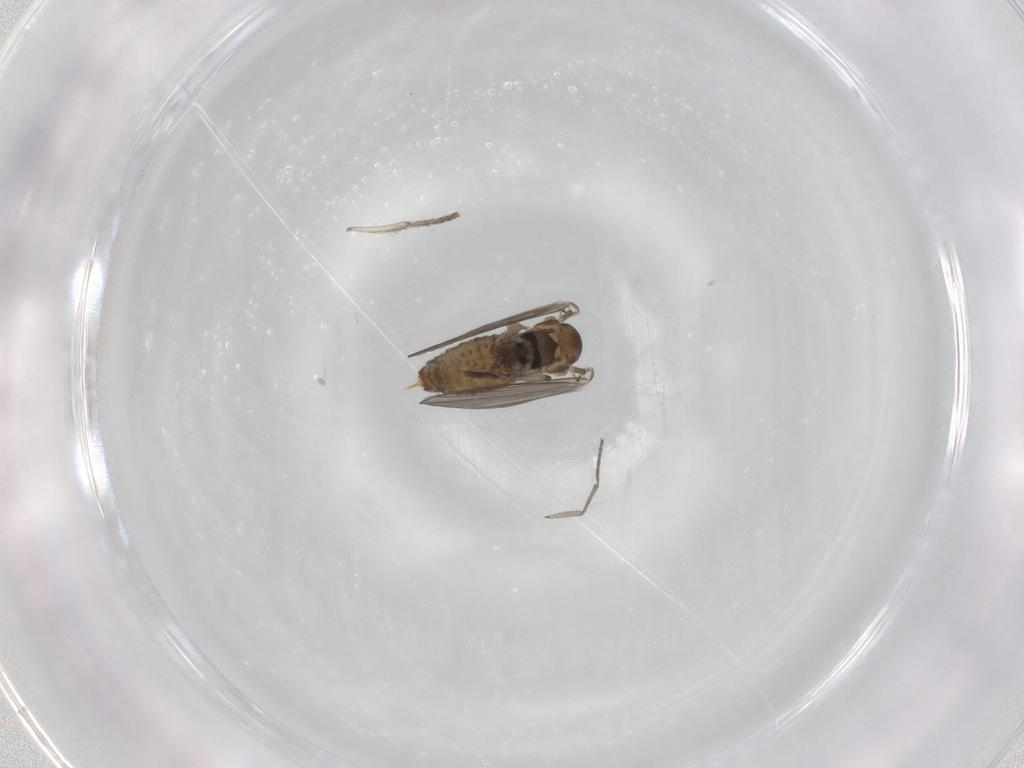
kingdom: Animalia
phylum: Arthropoda
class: Insecta
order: Diptera
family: Sciaridae
